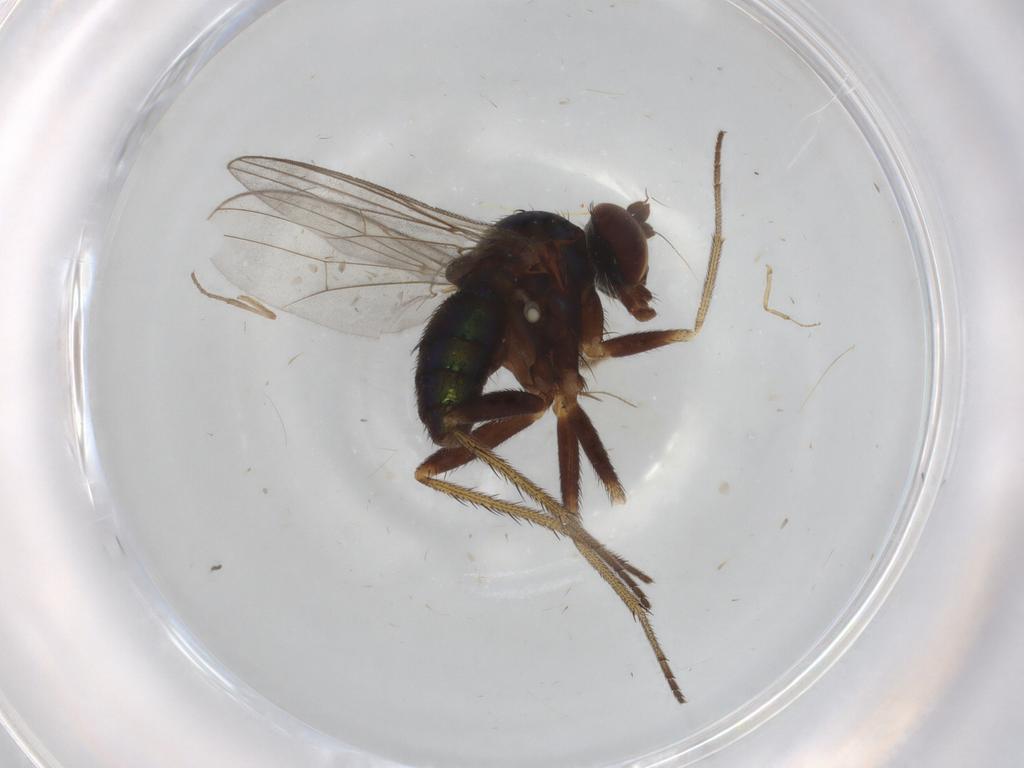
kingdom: Animalia
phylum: Arthropoda
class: Insecta
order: Diptera
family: Dolichopodidae
